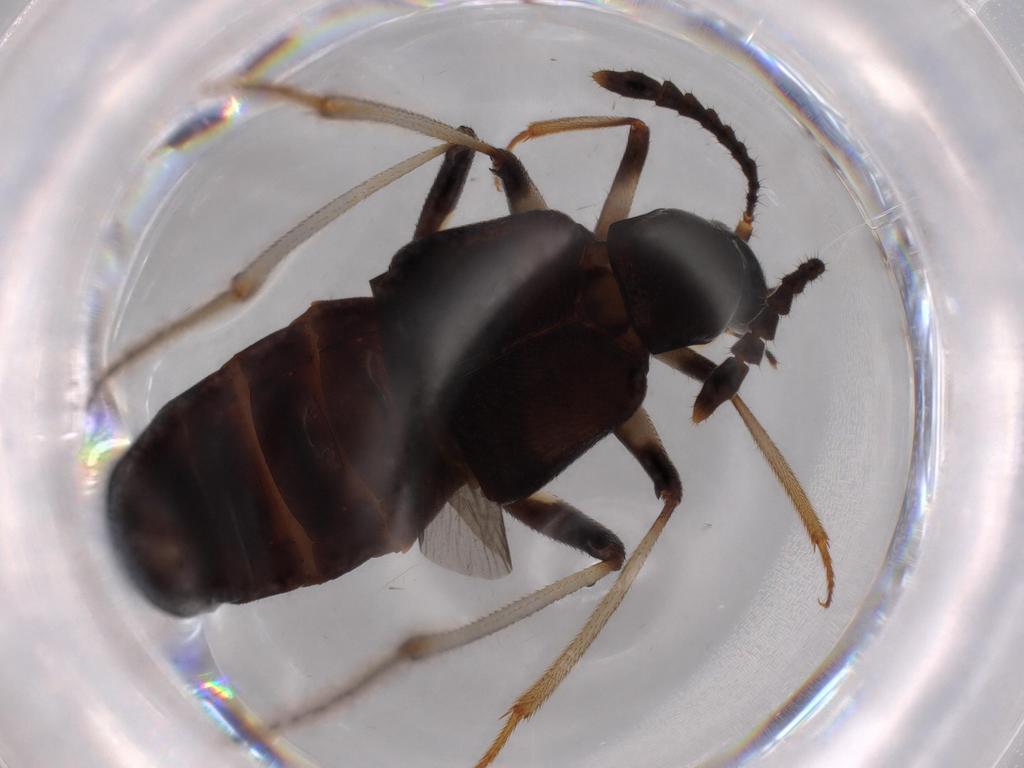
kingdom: Animalia
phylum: Arthropoda
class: Insecta
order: Coleoptera
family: Staphylinidae
